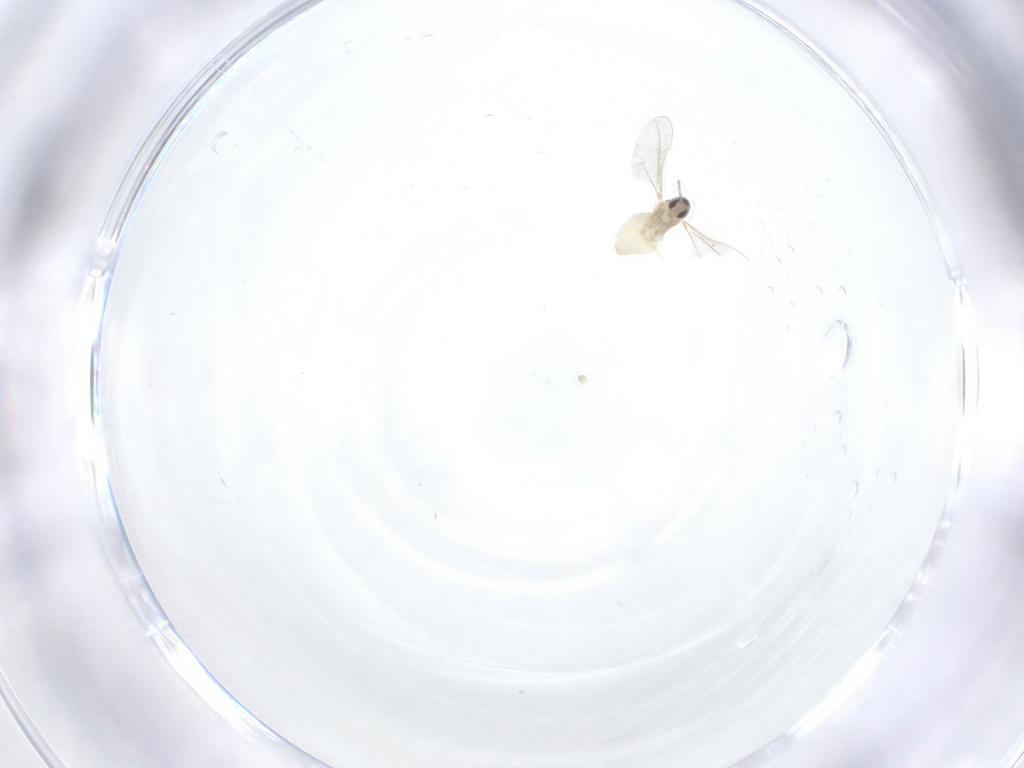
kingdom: Animalia
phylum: Arthropoda
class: Insecta
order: Diptera
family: Cecidomyiidae
